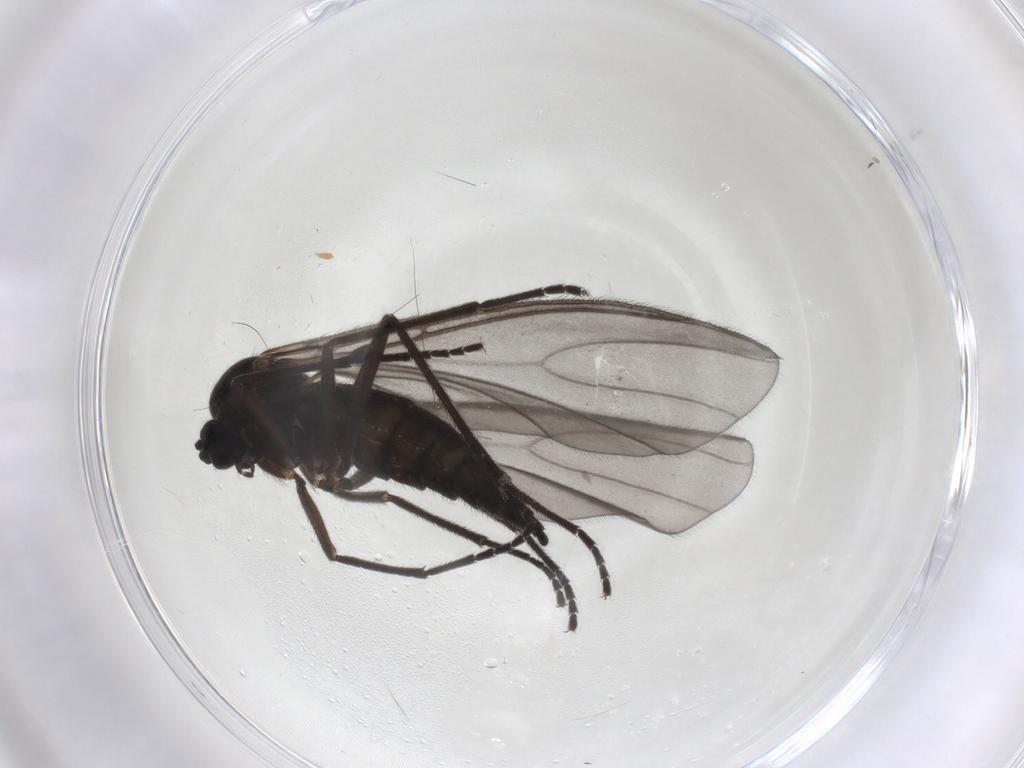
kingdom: Animalia
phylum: Arthropoda
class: Insecta
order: Diptera
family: Sciaridae
